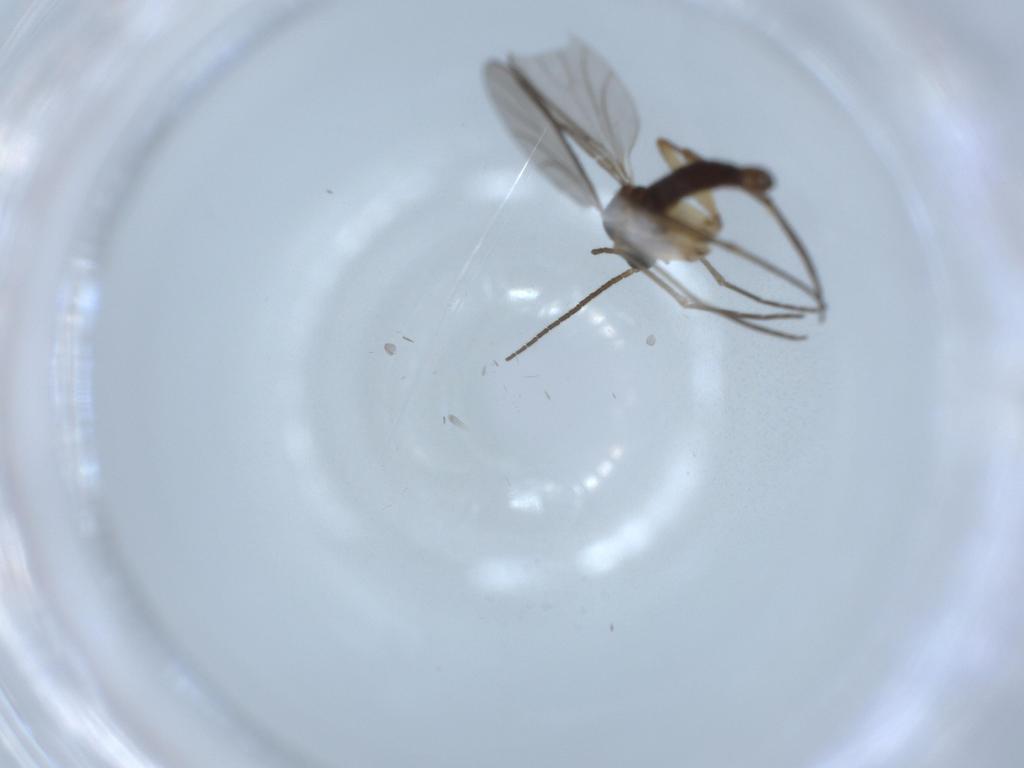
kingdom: Animalia
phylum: Arthropoda
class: Insecta
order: Diptera
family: Sciaridae
